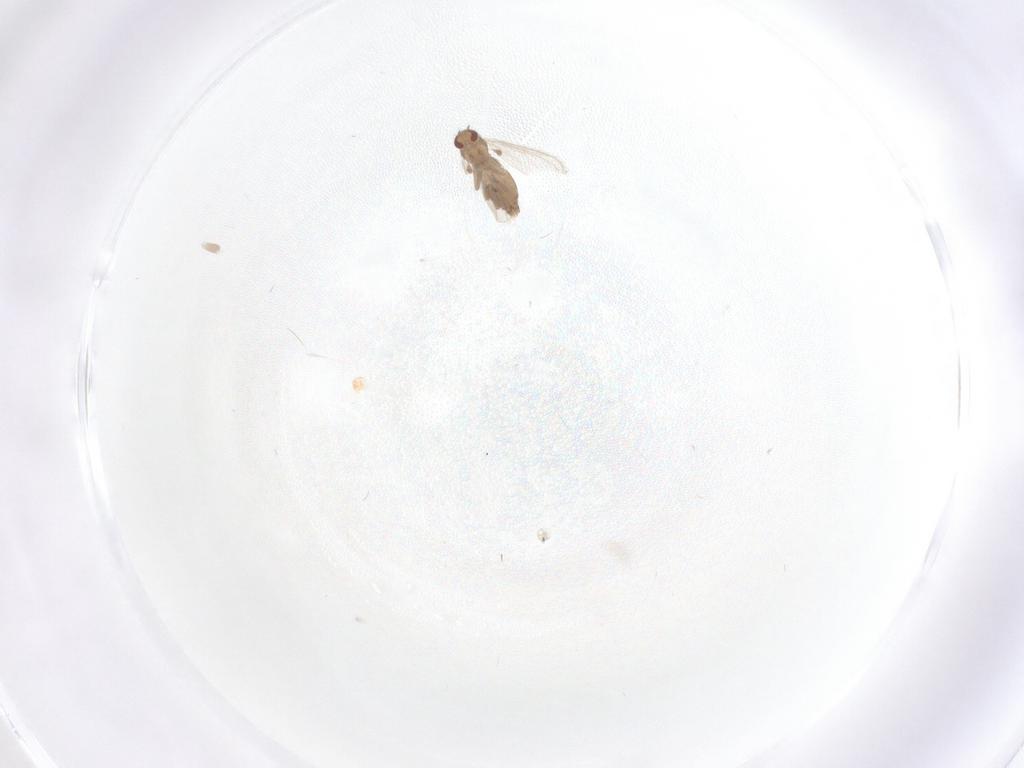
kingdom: Animalia
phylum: Arthropoda
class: Insecta
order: Diptera
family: Chironomidae
